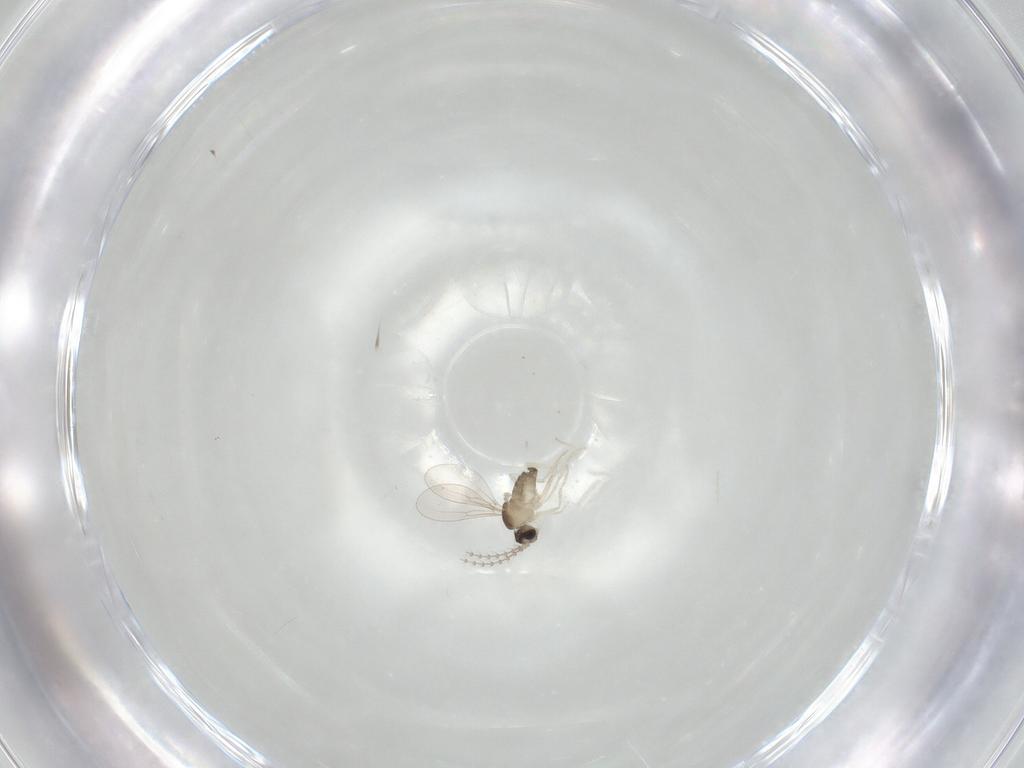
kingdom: Animalia
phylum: Arthropoda
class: Insecta
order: Diptera
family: Cecidomyiidae
